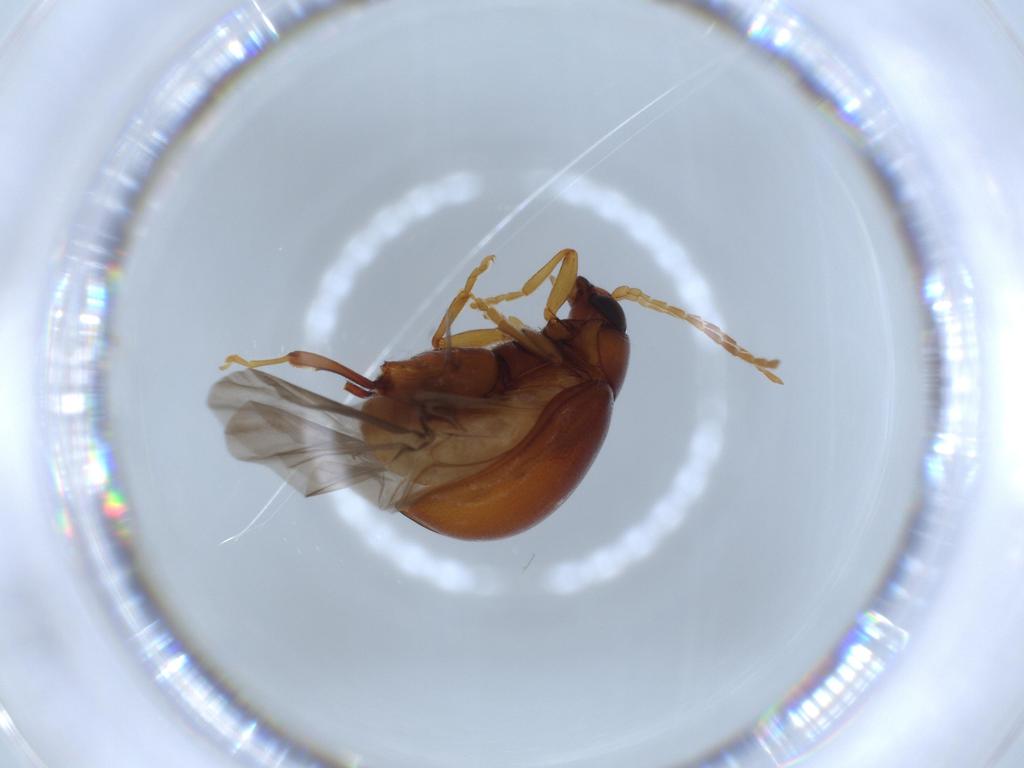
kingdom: Animalia
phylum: Arthropoda
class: Insecta
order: Coleoptera
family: Chrysomelidae
